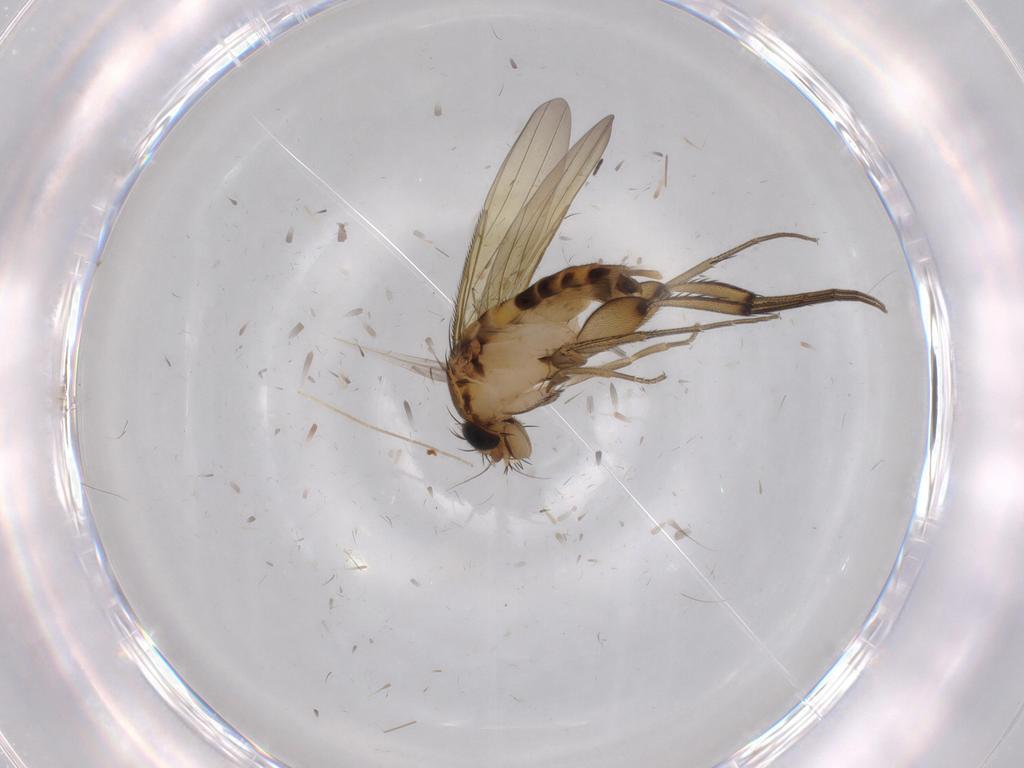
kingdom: Animalia
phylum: Arthropoda
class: Insecta
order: Diptera
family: Chironomidae
